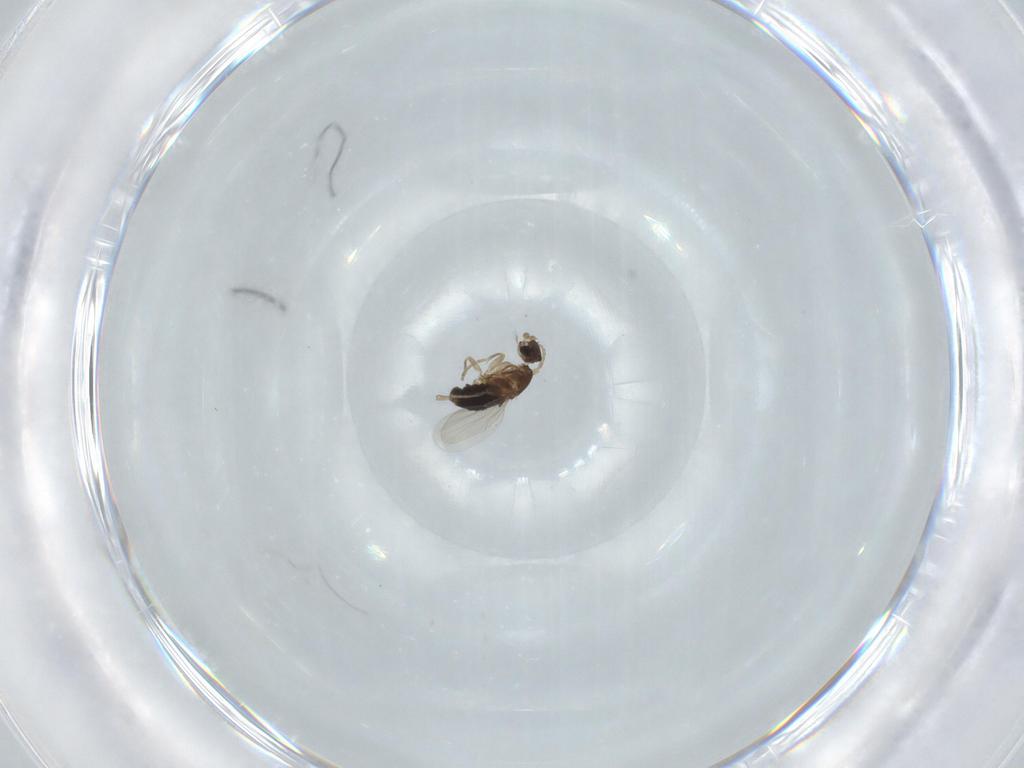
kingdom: Animalia
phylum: Arthropoda
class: Insecta
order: Diptera
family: Phoridae
